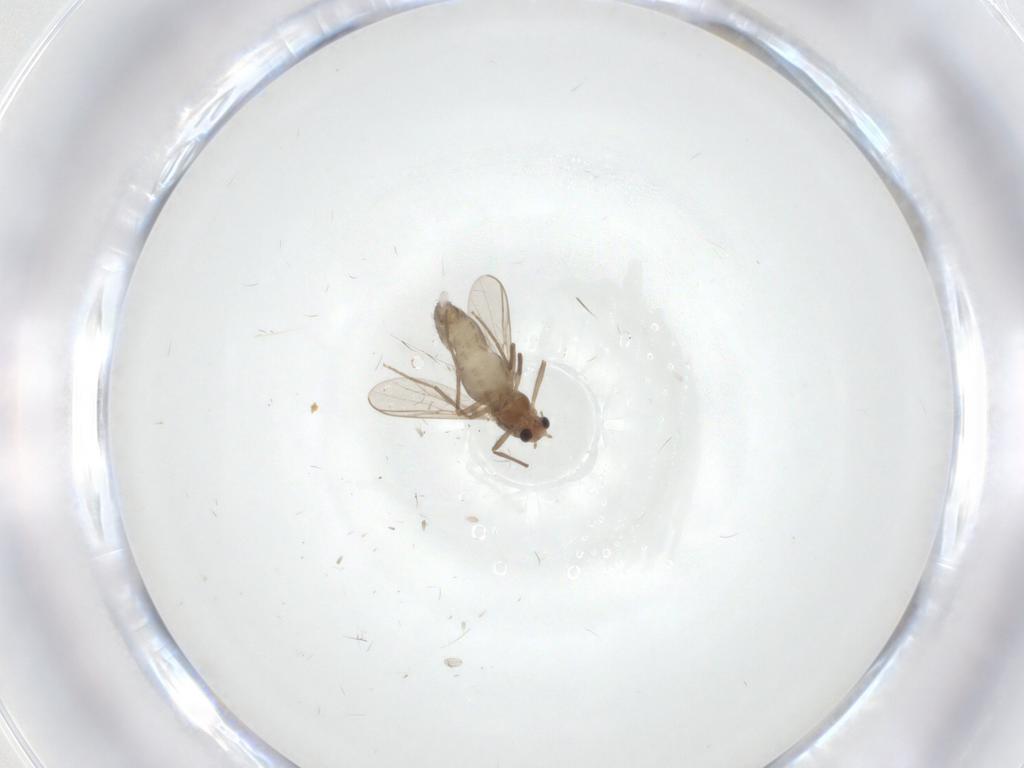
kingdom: Animalia
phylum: Arthropoda
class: Insecta
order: Diptera
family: Chironomidae
